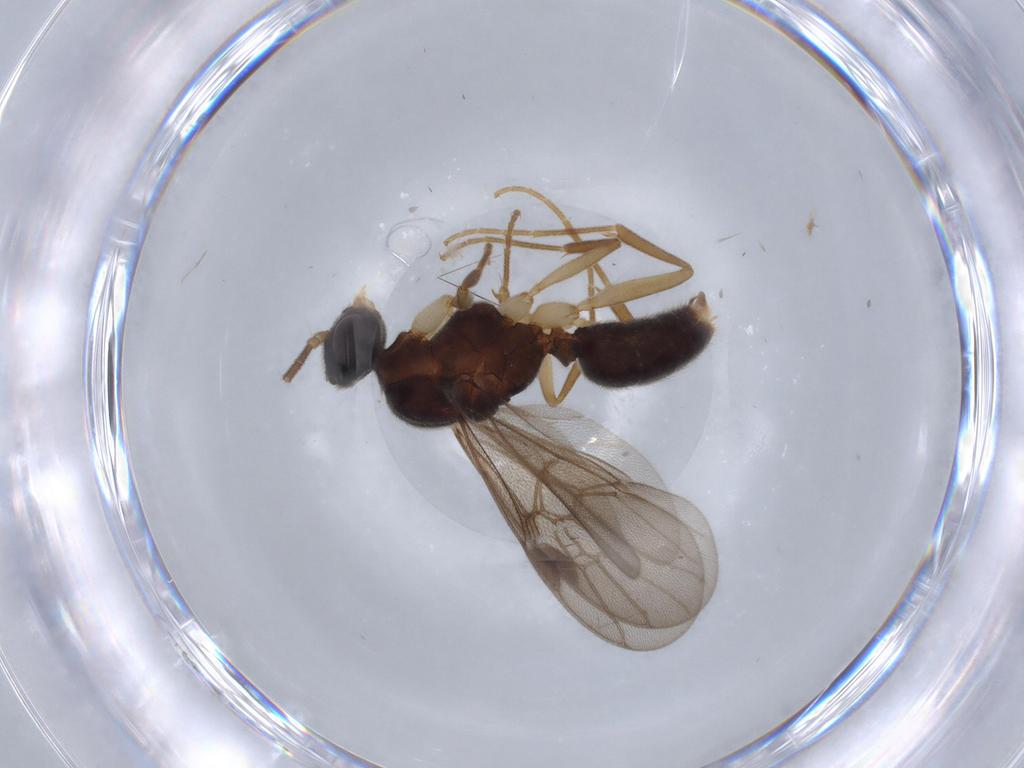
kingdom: Animalia
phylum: Arthropoda
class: Insecta
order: Hymenoptera
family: Formicidae
